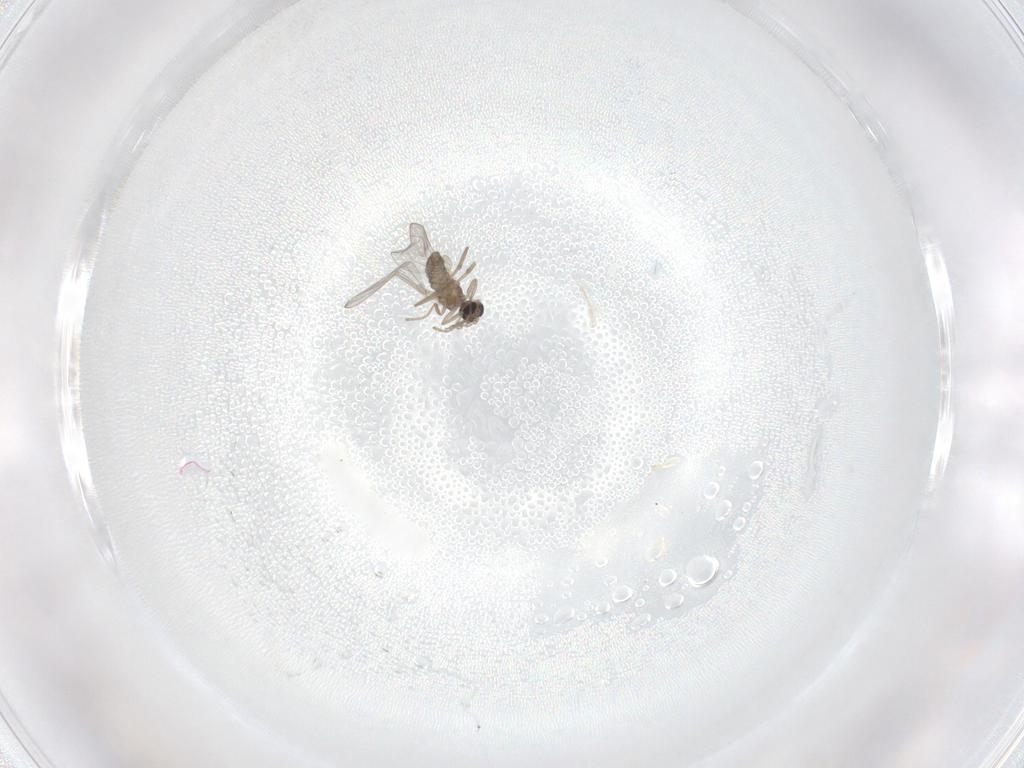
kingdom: Animalia
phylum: Arthropoda
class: Insecta
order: Diptera
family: Cecidomyiidae
